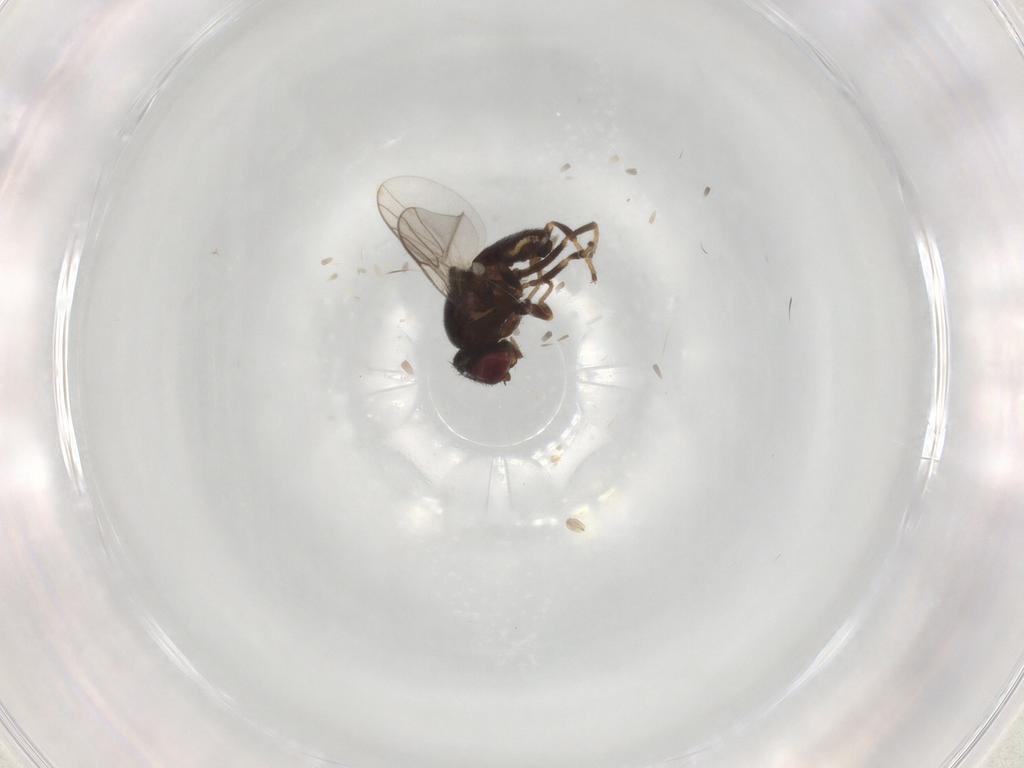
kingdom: Animalia
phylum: Arthropoda
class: Insecta
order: Diptera
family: Chloropidae
